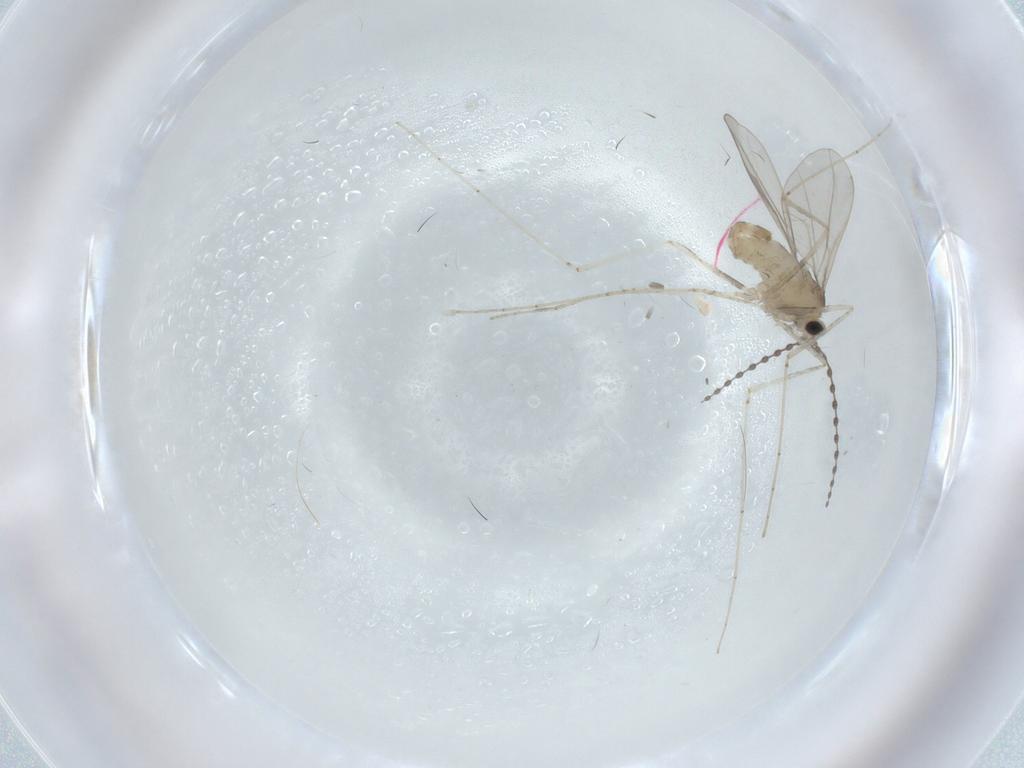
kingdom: Animalia
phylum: Arthropoda
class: Insecta
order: Diptera
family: Cecidomyiidae
